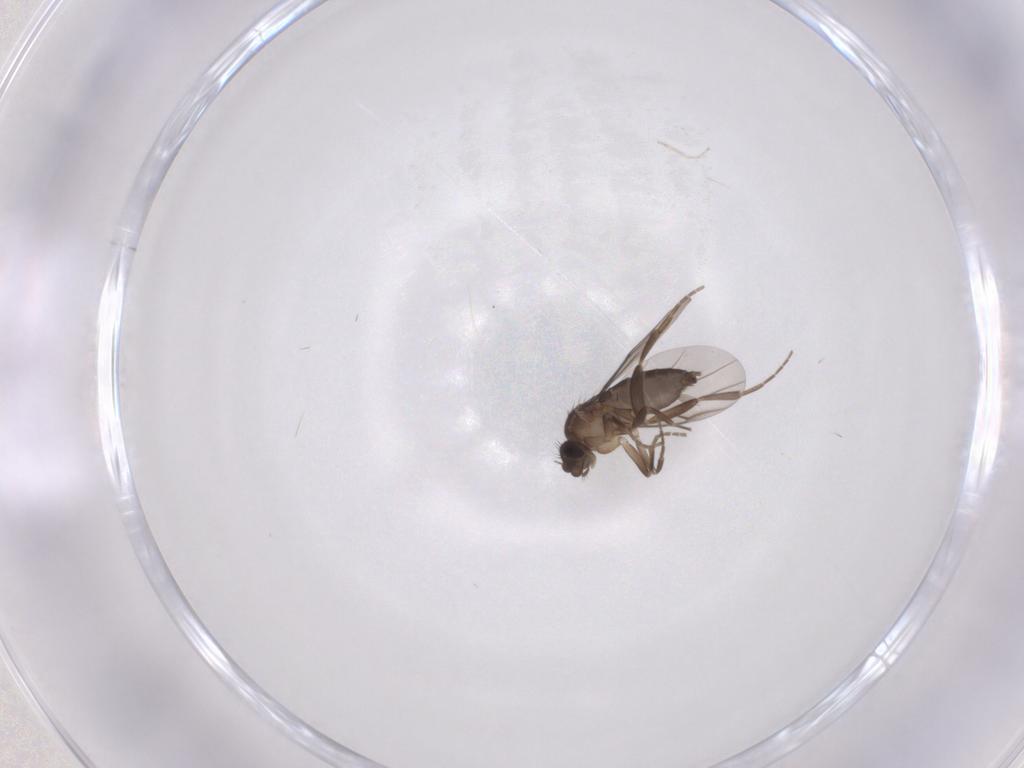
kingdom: Animalia
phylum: Arthropoda
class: Insecta
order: Diptera
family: Phoridae
